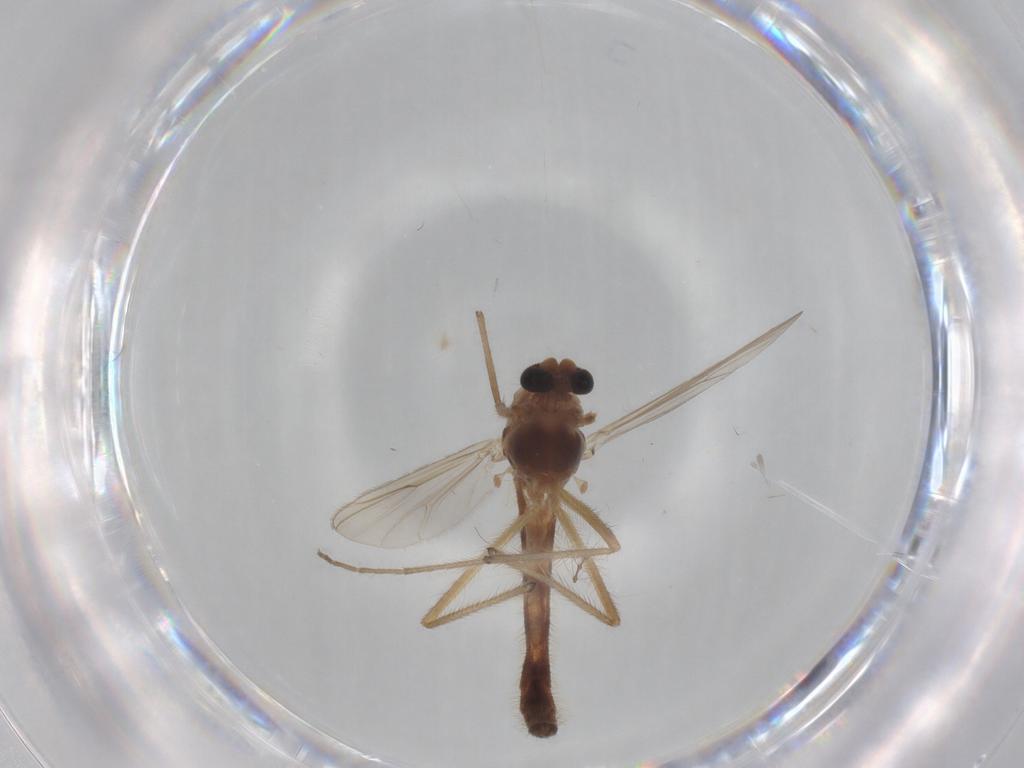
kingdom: Animalia
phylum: Arthropoda
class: Insecta
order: Diptera
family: Chironomidae
